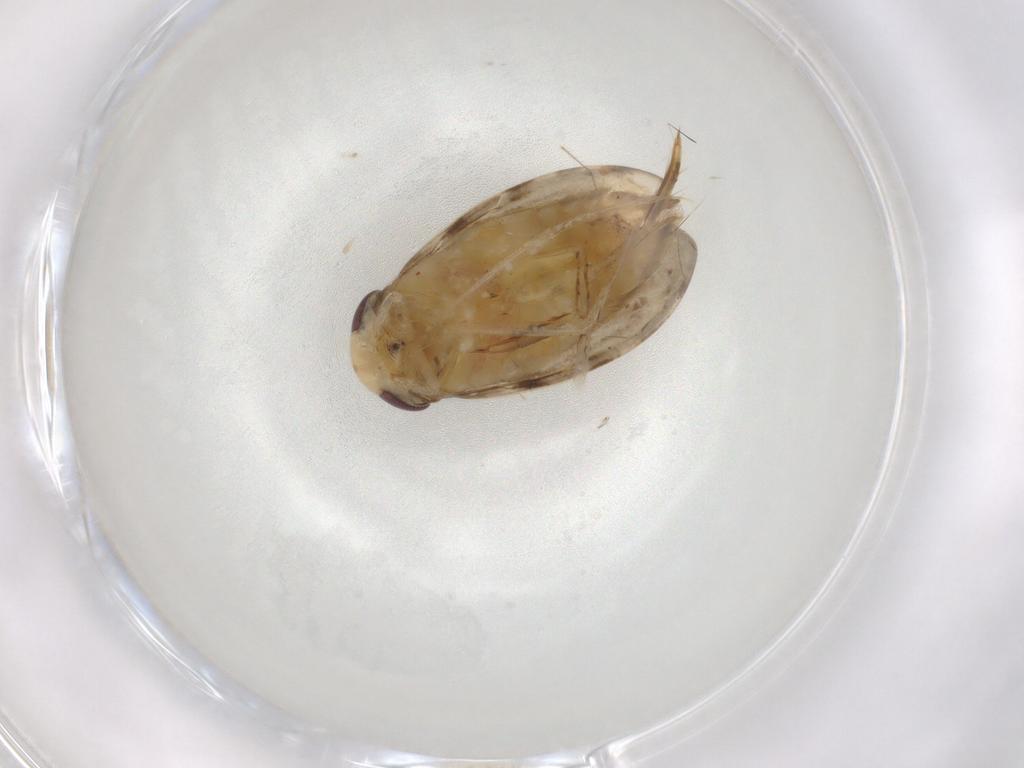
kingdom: Animalia
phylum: Arthropoda
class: Insecta
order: Hemiptera
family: Corixidae
